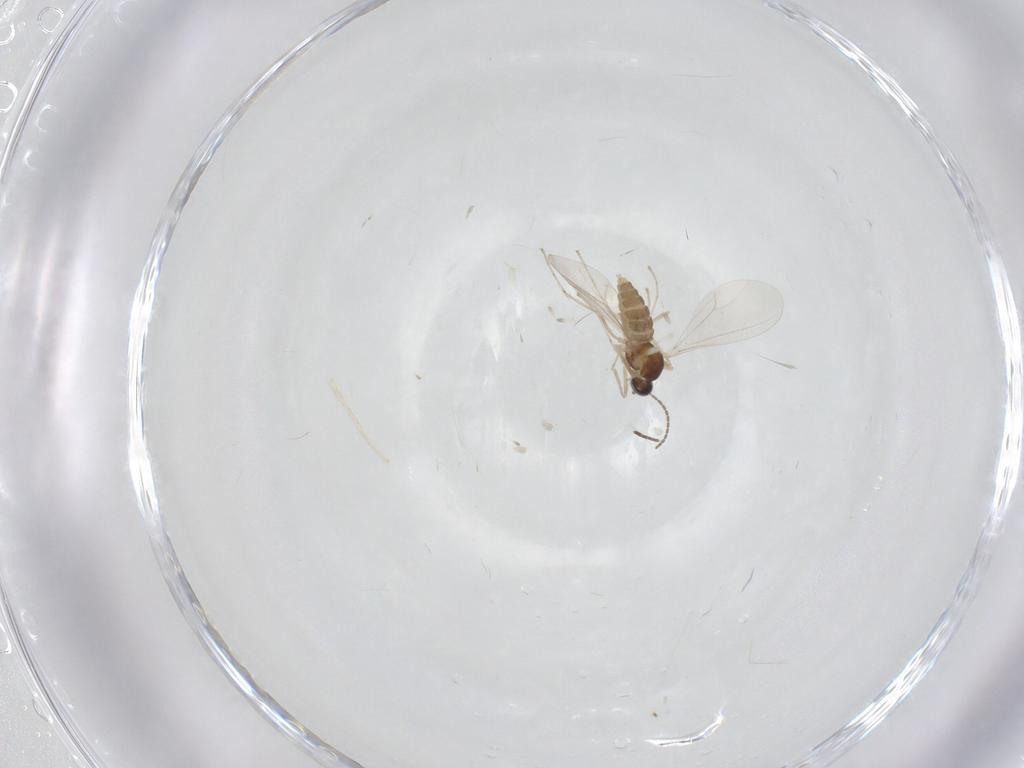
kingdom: Animalia
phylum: Arthropoda
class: Insecta
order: Diptera
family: Cecidomyiidae
